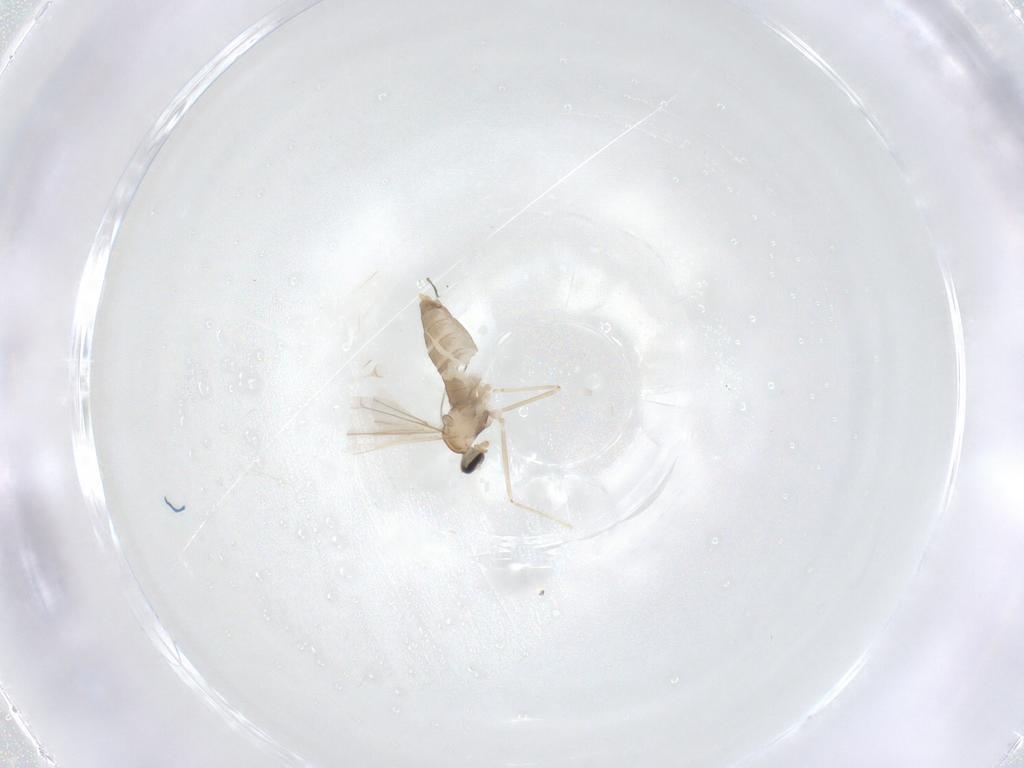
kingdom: Animalia
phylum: Arthropoda
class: Insecta
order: Diptera
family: Cecidomyiidae
